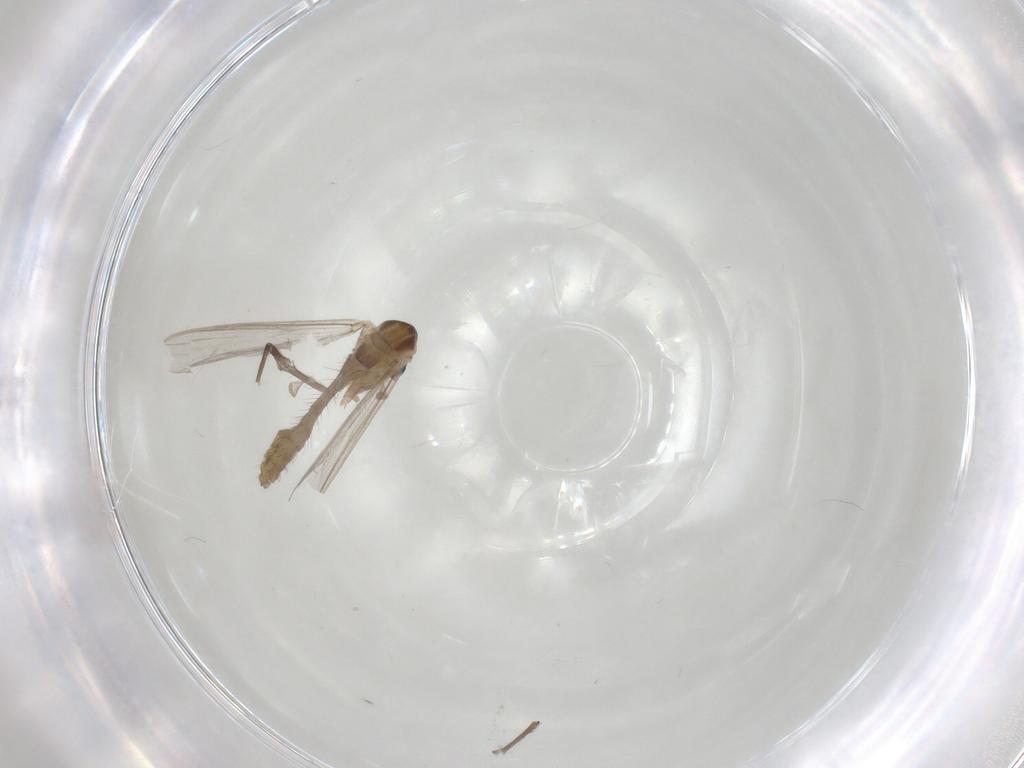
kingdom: Animalia
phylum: Arthropoda
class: Insecta
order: Diptera
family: Chironomidae
